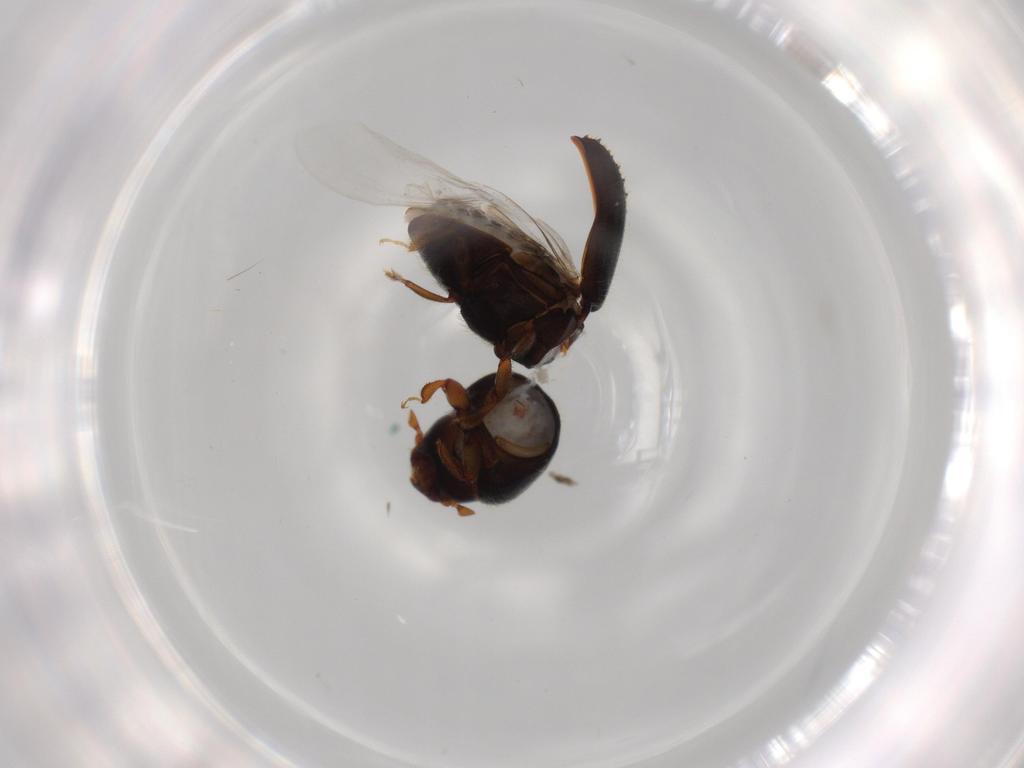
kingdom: Animalia
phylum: Arthropoda
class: Insecta
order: Coleoptera
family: Curculionidae
